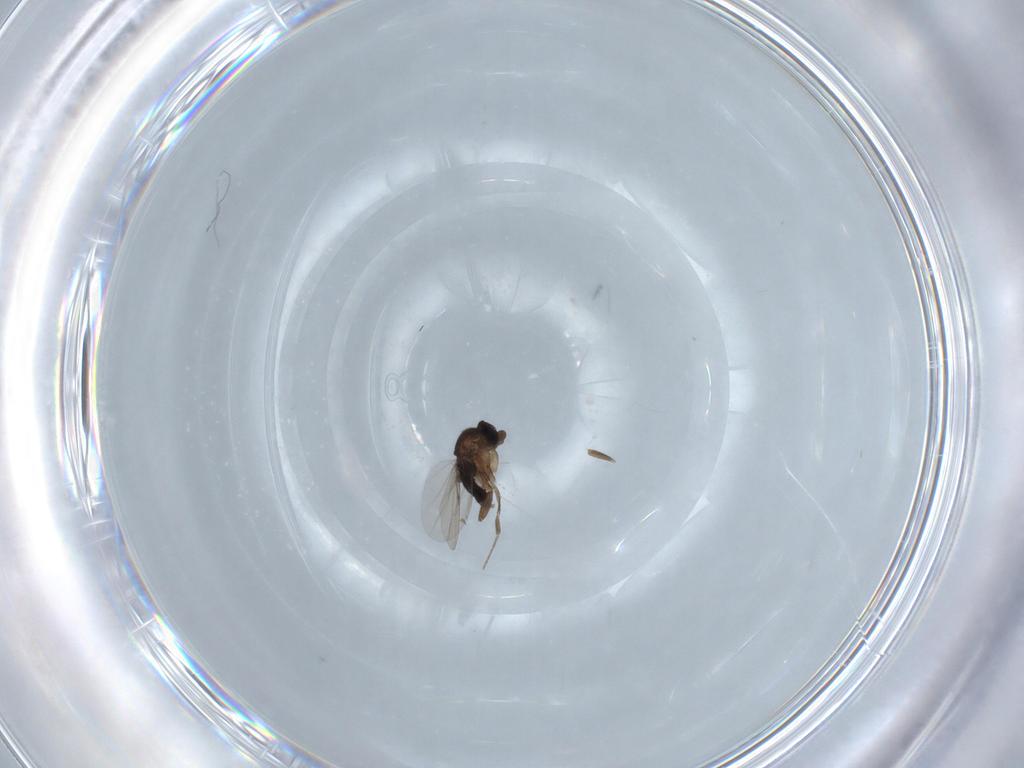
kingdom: Animalia
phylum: Arthropoda
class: Insecta
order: Diptera
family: Phoridae
